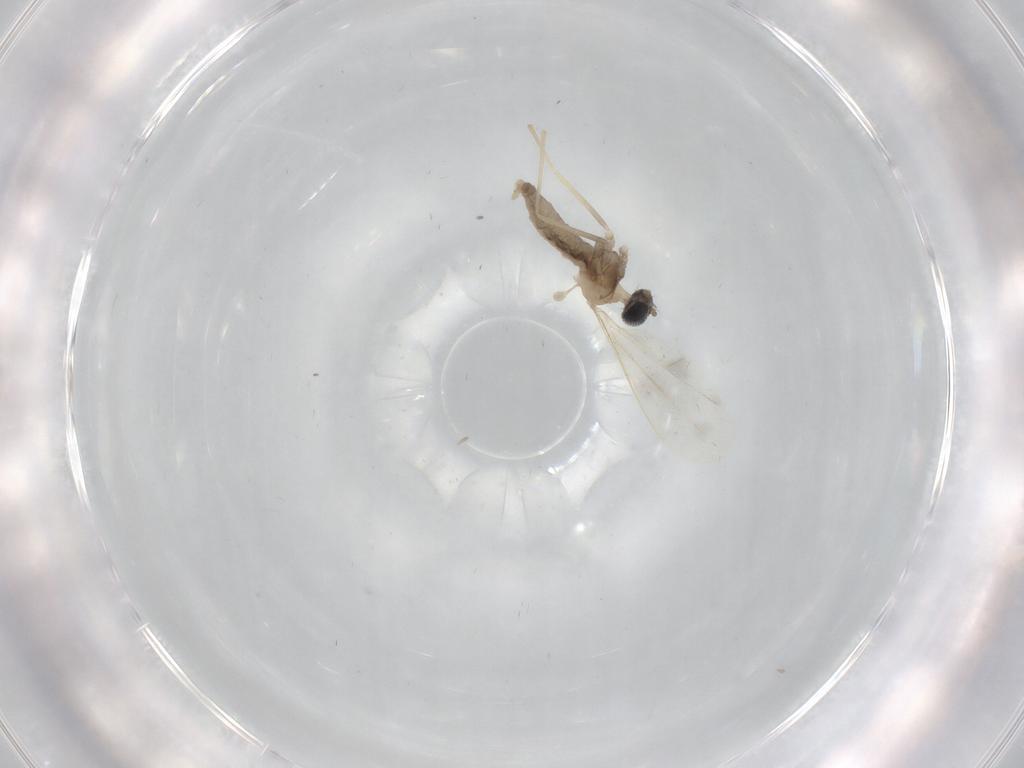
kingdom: Animalia
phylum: Arthropoda
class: Insecta
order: Diptera
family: Cecidomyiidae
